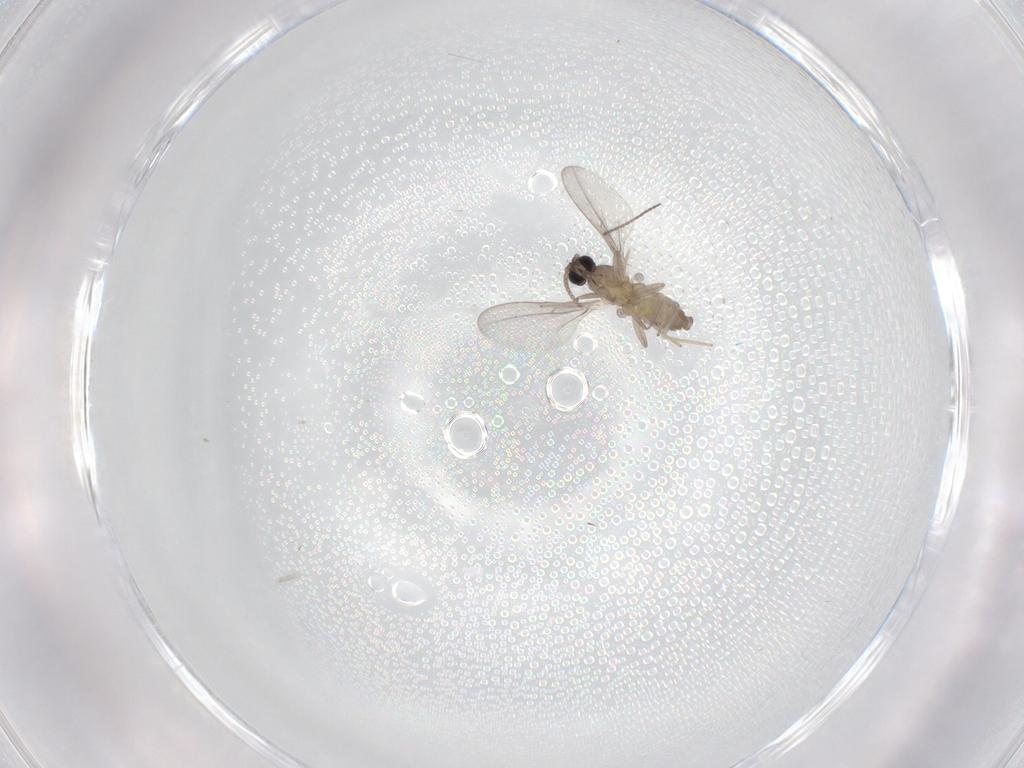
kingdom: Animalia
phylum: Arthropoda
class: Insecta
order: Diptera
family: Cecidomyiidae
